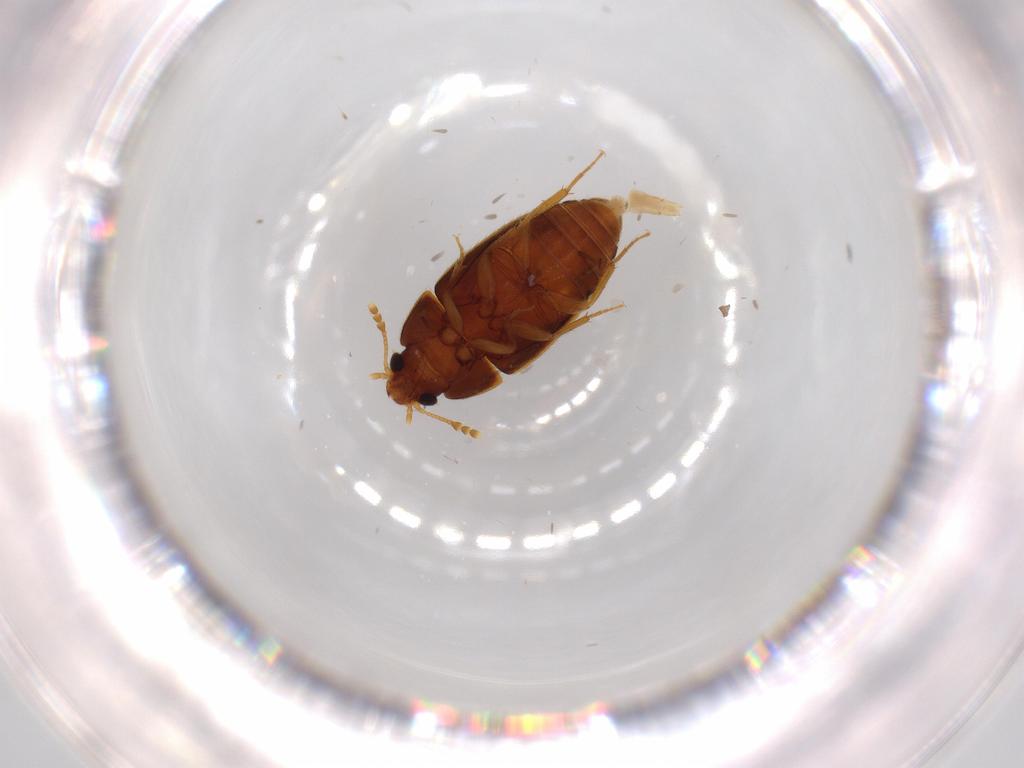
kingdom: Animalia
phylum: Arthropoda
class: Insecta
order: Coleoptera
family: Mycetophagidae
